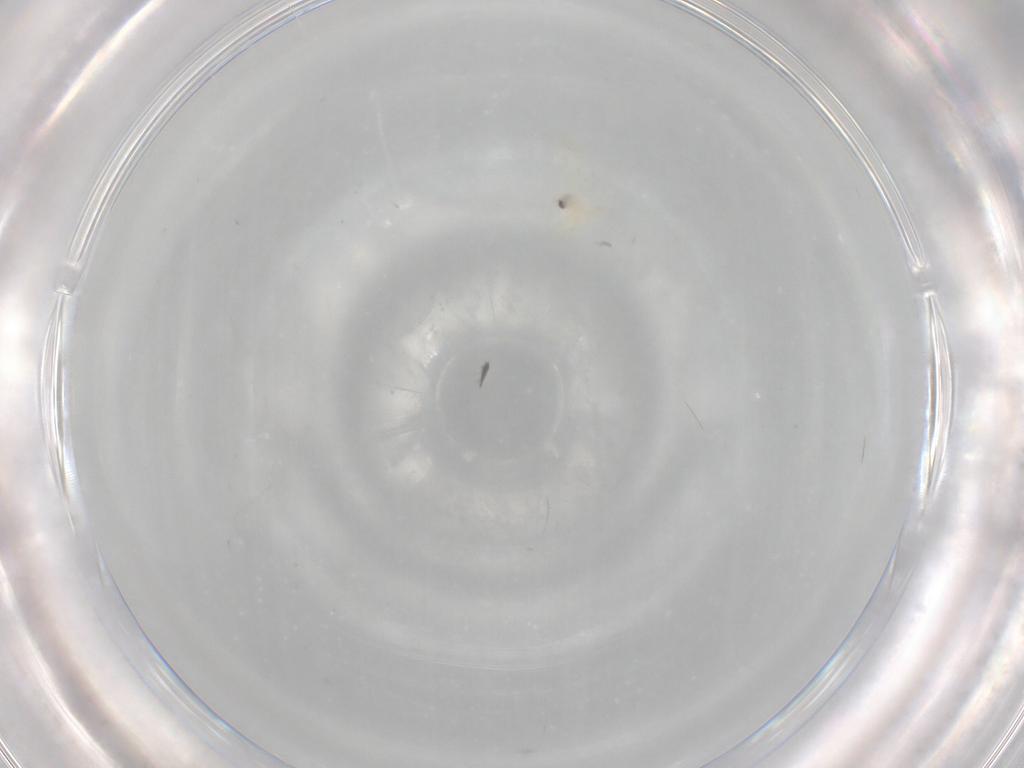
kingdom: Animalia
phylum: Arthropoda
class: Insecta
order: Hemiptera
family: Aleyrodidae
